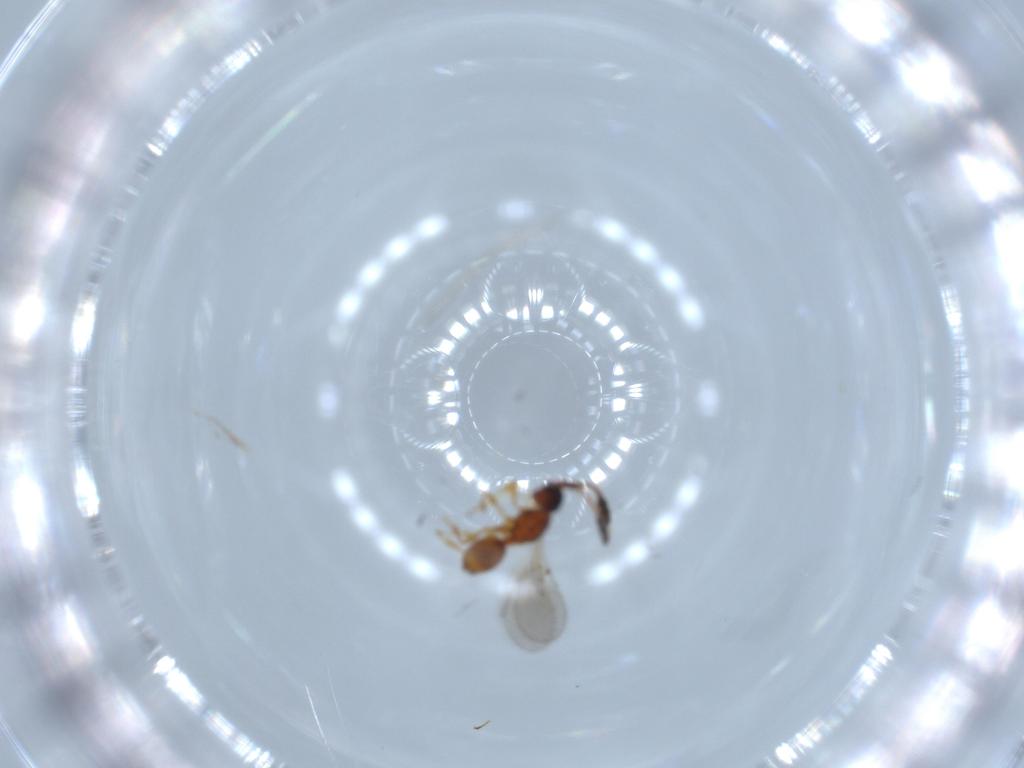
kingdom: Animalia
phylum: Arthropoda
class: Insecta
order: Hymenoptera
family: Diapriidae
